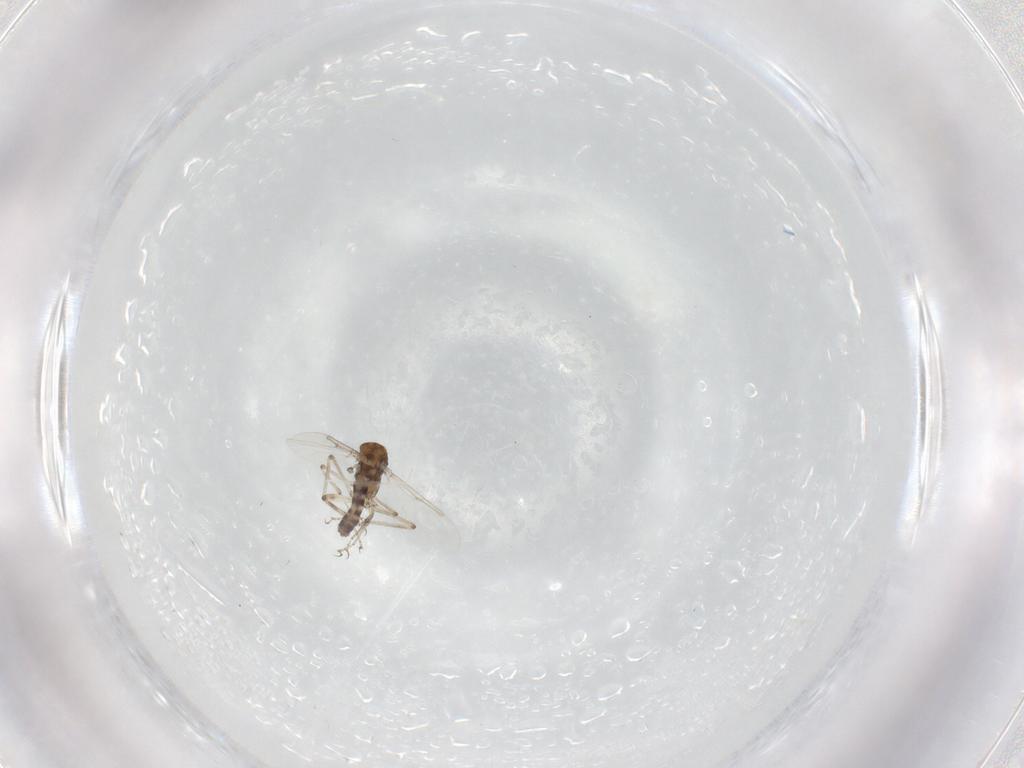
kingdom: Animalia
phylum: Arthropoda
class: Insecta
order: Diptera
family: Ceratopogonidae
